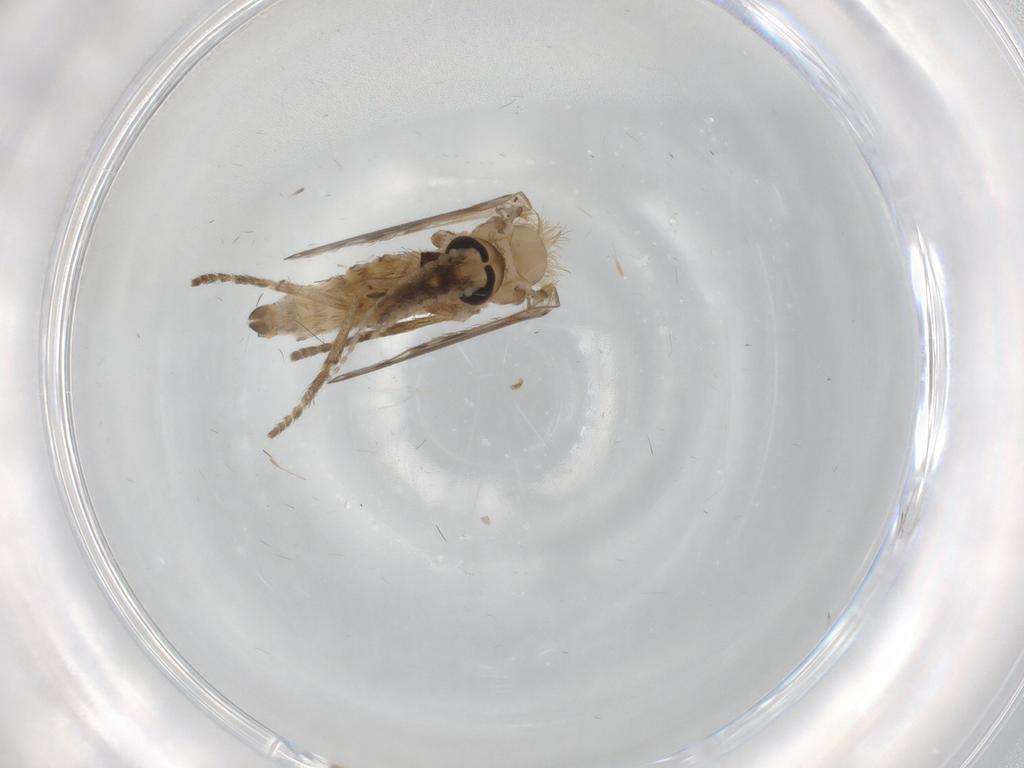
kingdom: Animalia
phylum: Arthropoda
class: Insecta
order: Diptera
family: Psychodidae
